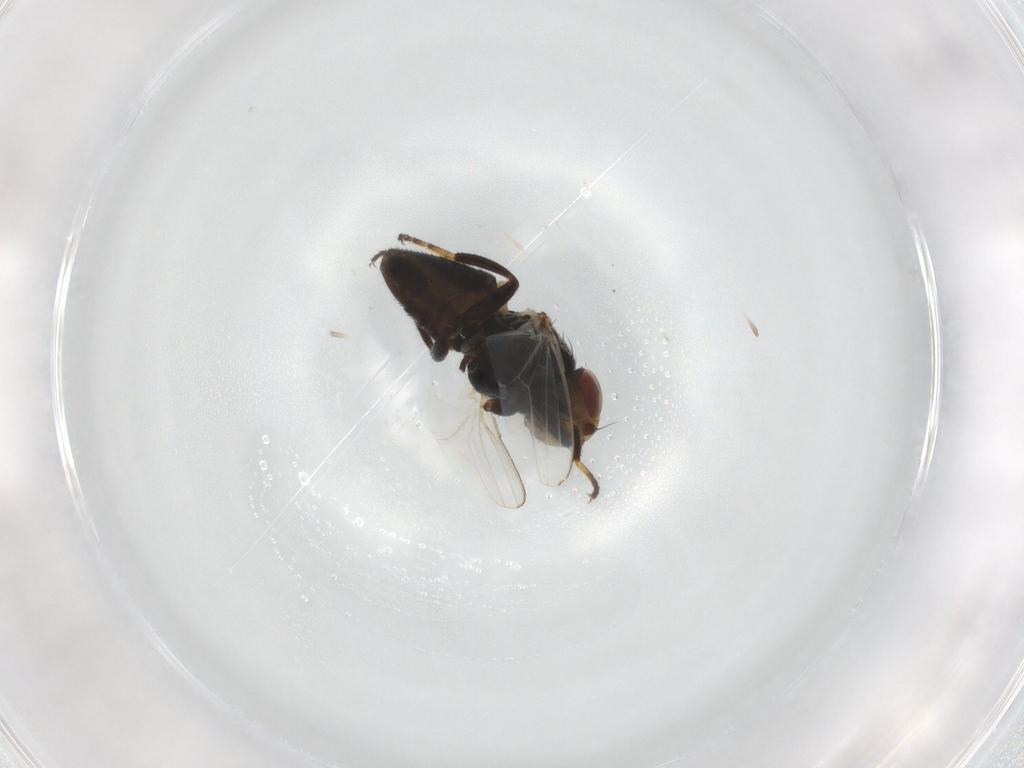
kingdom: Animalia
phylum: Arthropoda
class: Insecta
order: Diptera
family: Milichiidae
